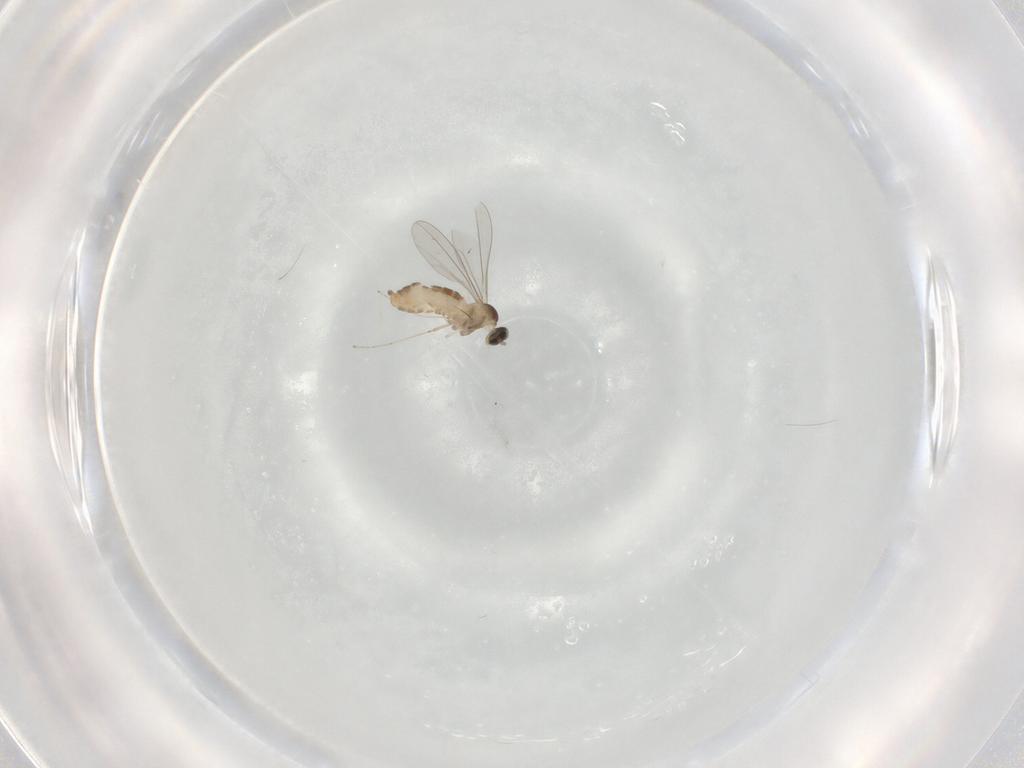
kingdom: Animalia
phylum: Arthropoda
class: Insecta
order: Diptera
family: Cecidomyiidae
